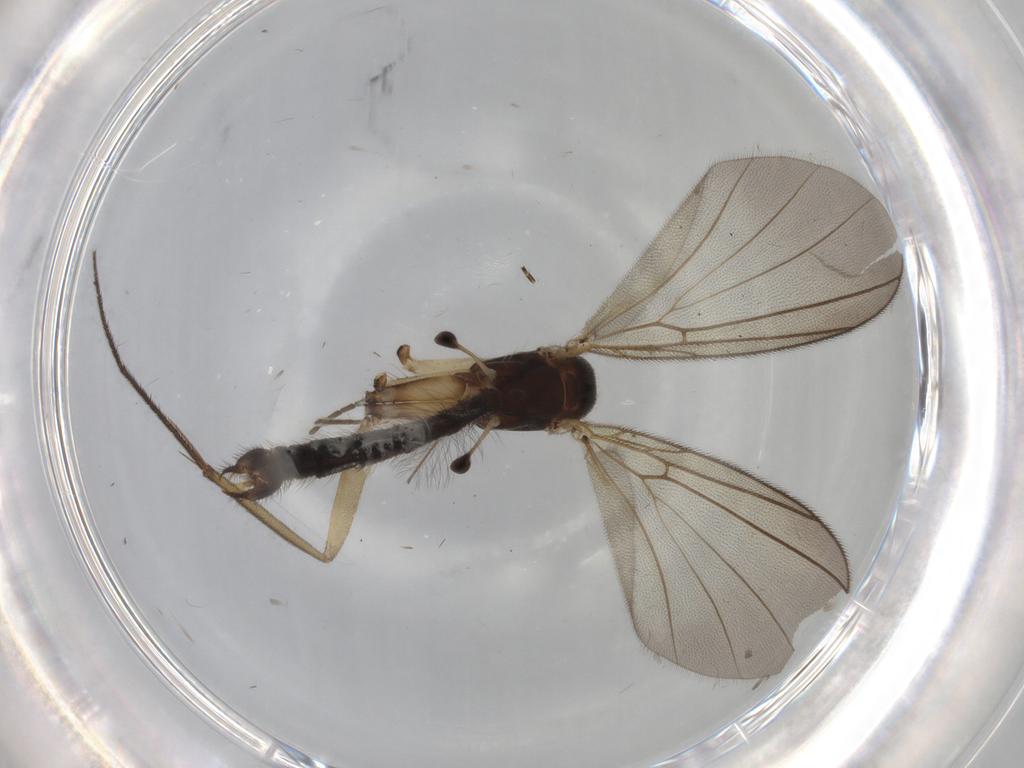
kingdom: Animalia
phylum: Arthropoda
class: Insecta
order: Diptera
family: Mycetophilidae
